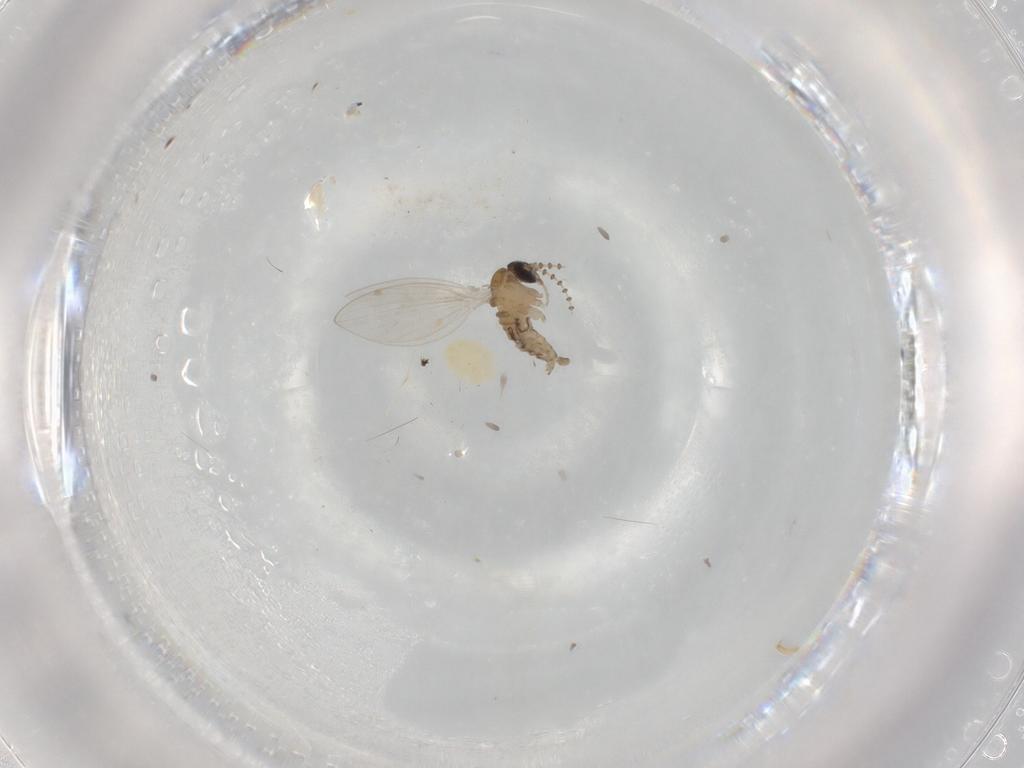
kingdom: Animalia
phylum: Arthropoda
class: Insecta
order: Diptera
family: Psychodidae
